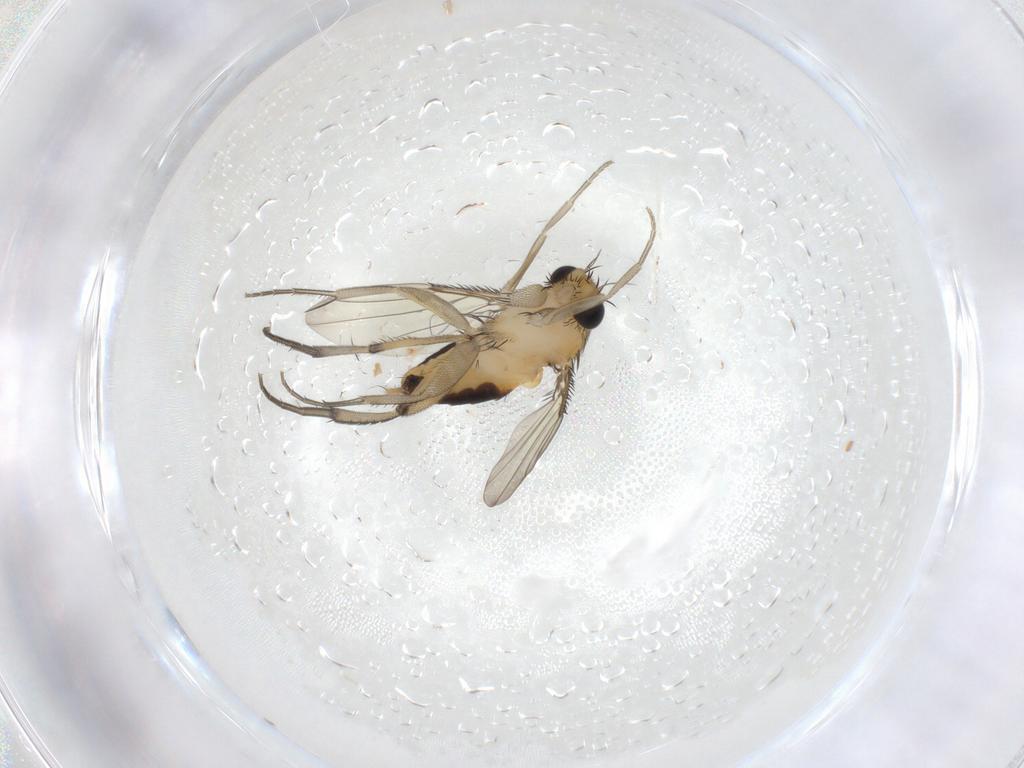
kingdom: Animalia
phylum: Arthropoda
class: Insecta
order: Diptera
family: Phoridae
